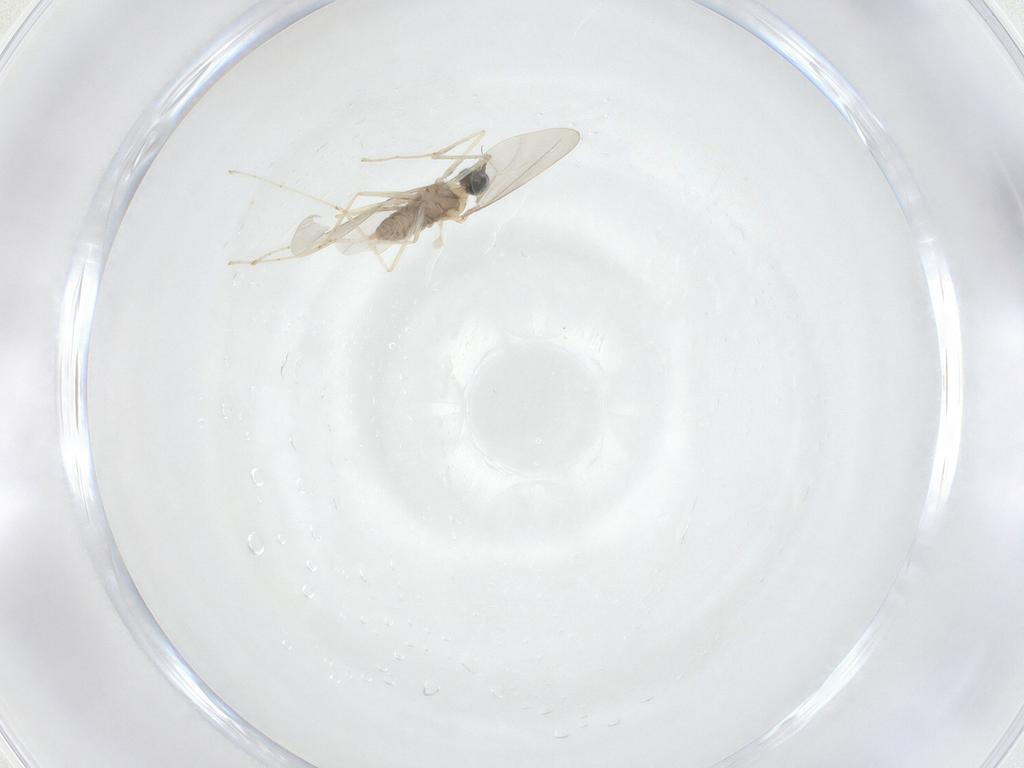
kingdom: Animalia
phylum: Arthropoda
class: Insecta
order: Diptera
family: Cecidomyiidae
